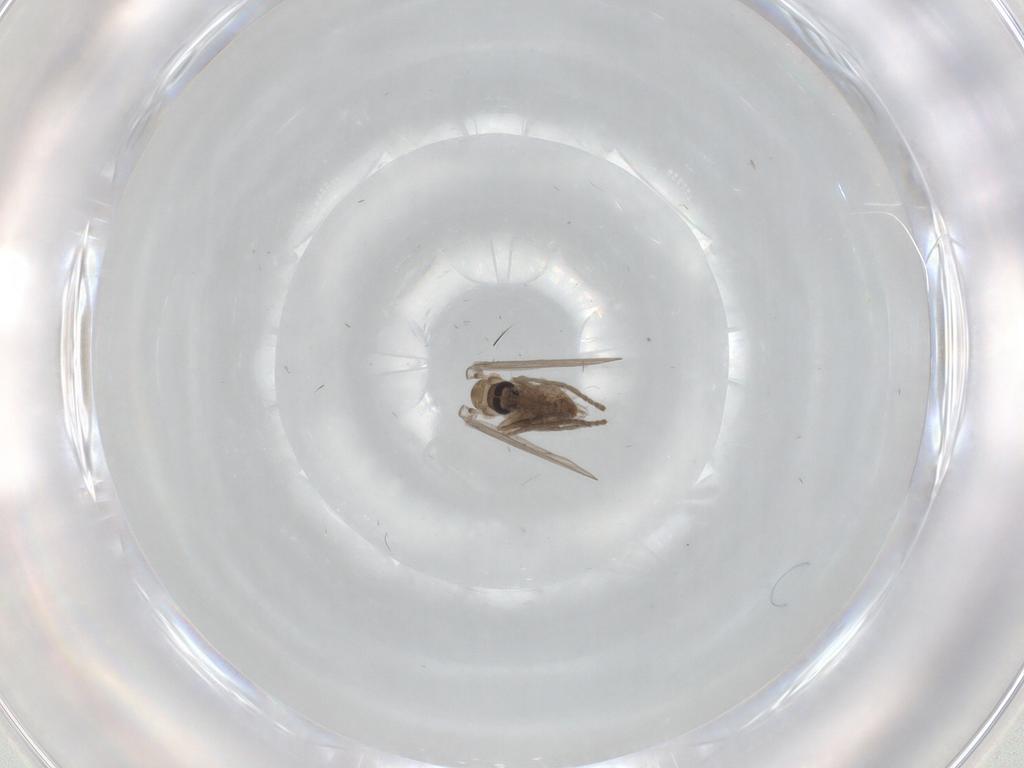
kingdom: Animalia
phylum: Arthropoda
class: Insecta
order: Diptera
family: Psychodidae
